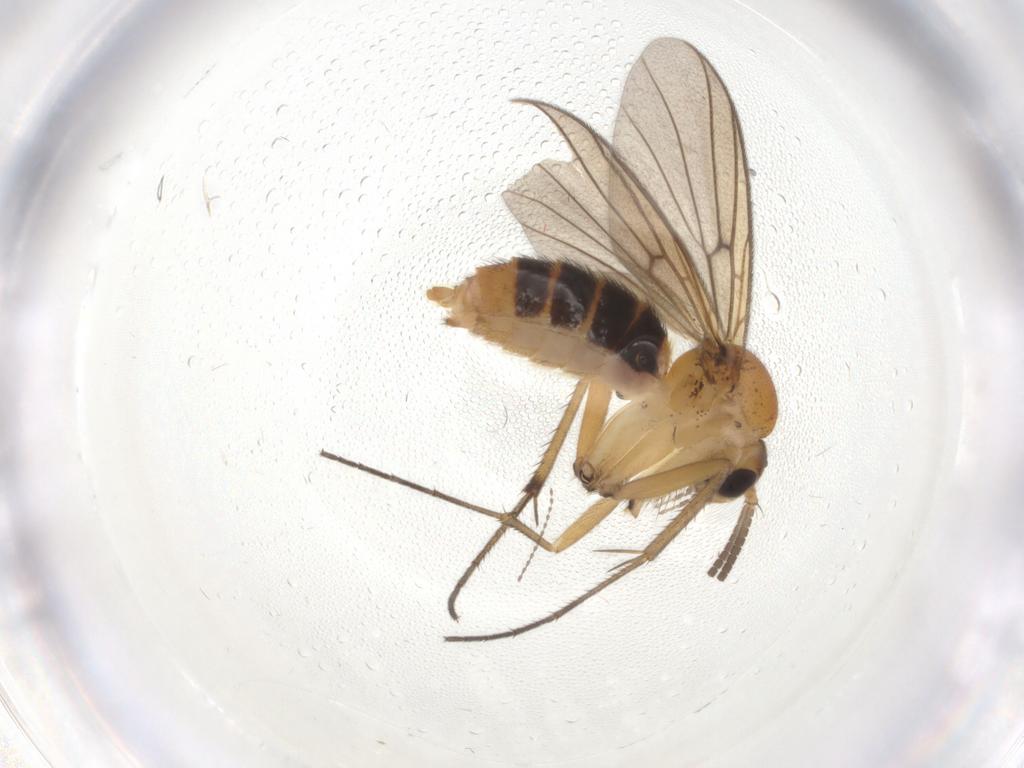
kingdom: Animalia
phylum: Arthropoda
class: Insecta
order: Diptera
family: Mycetophilidae
